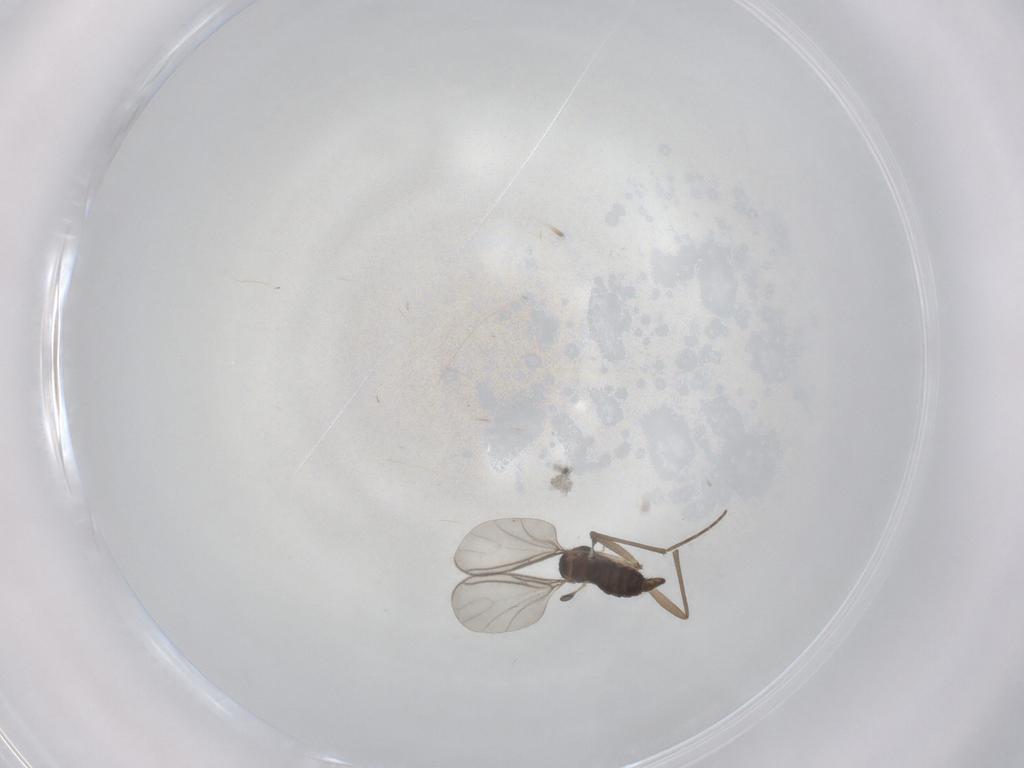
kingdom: Animalia
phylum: Arthropoda
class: Insecta
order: Diptera
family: Sciaridae
